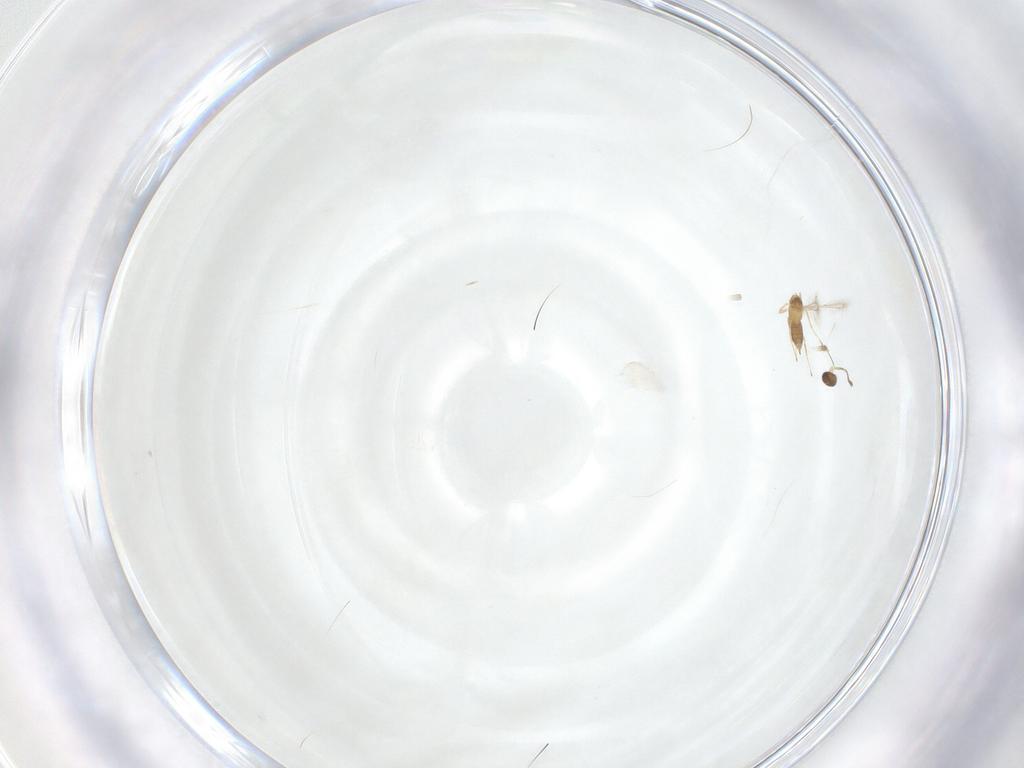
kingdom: Animalia
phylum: Arthropoda
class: Insecta
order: Hymenoptera
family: Mymaridae
